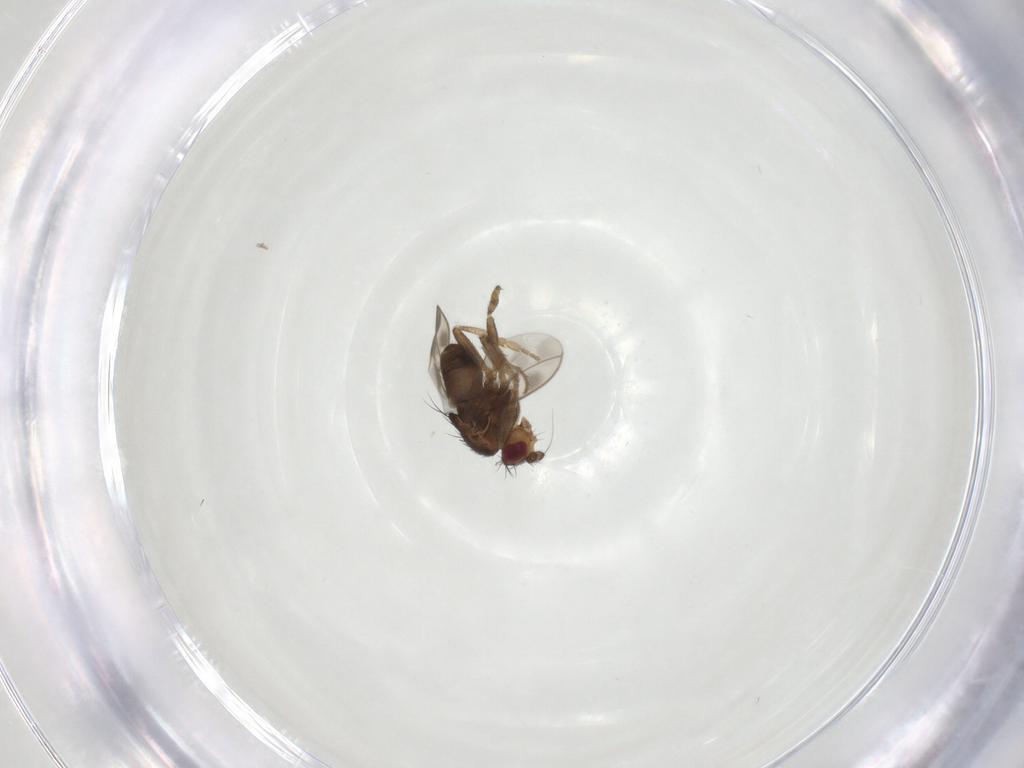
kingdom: Animalia
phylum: Arthropoda
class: Insecta
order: Diptera
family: Sphaeroceridae
